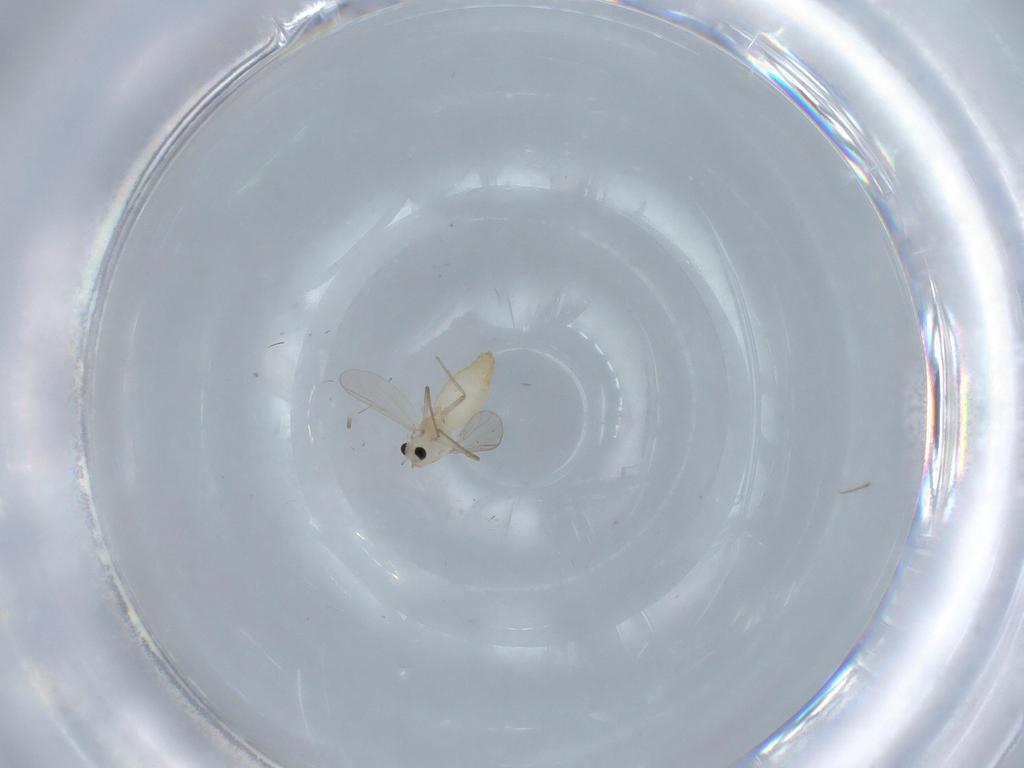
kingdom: Animalia
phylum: Arthropoda
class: Insecta
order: Diptera
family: Chironomidae
